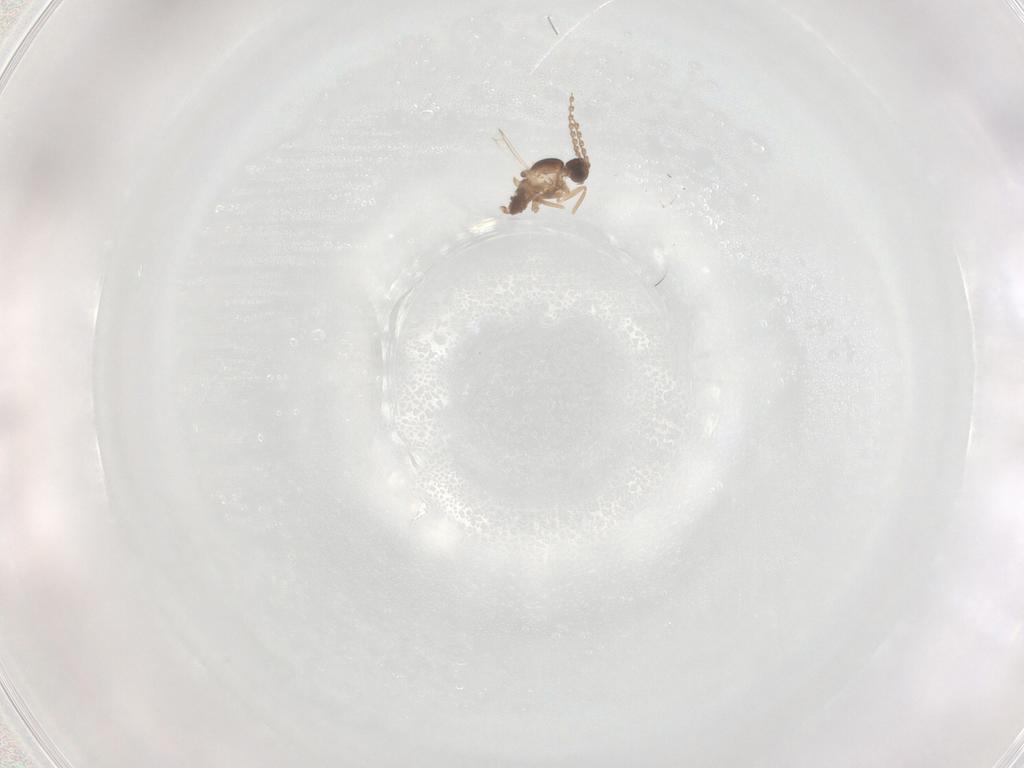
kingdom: Animalia
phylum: Arthropoda
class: Insecta
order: Diptera
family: Cecidomyiidae
